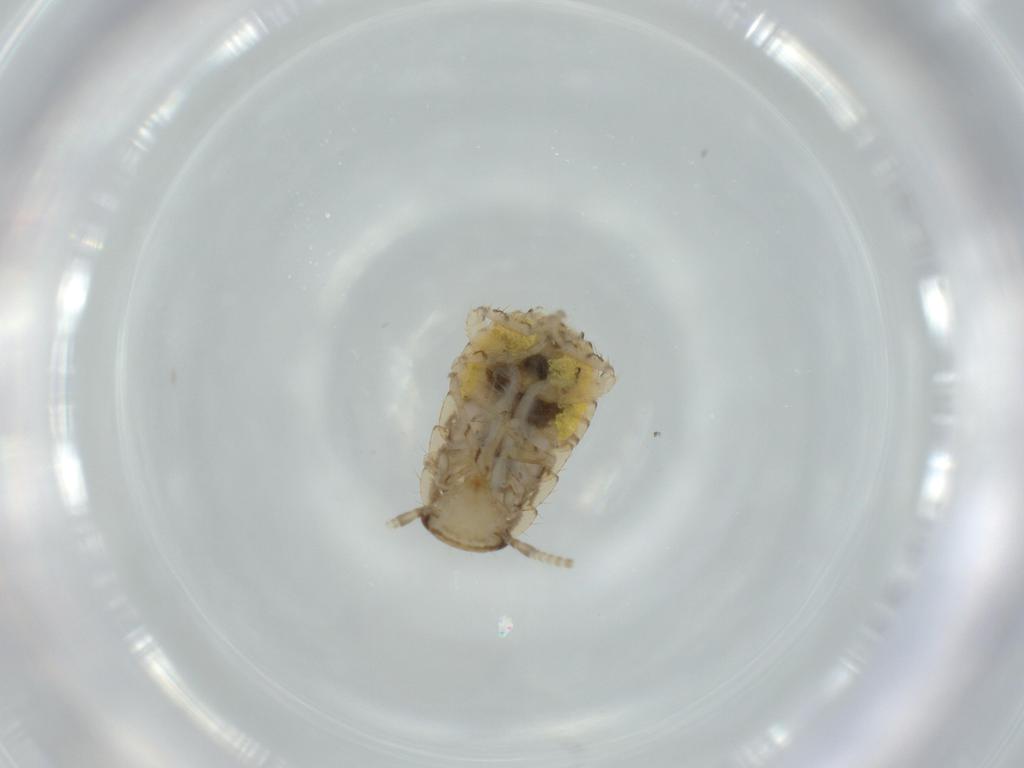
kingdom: Animalia
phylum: Arthropoda
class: Insecta
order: Blattodea
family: Ectobiidae
